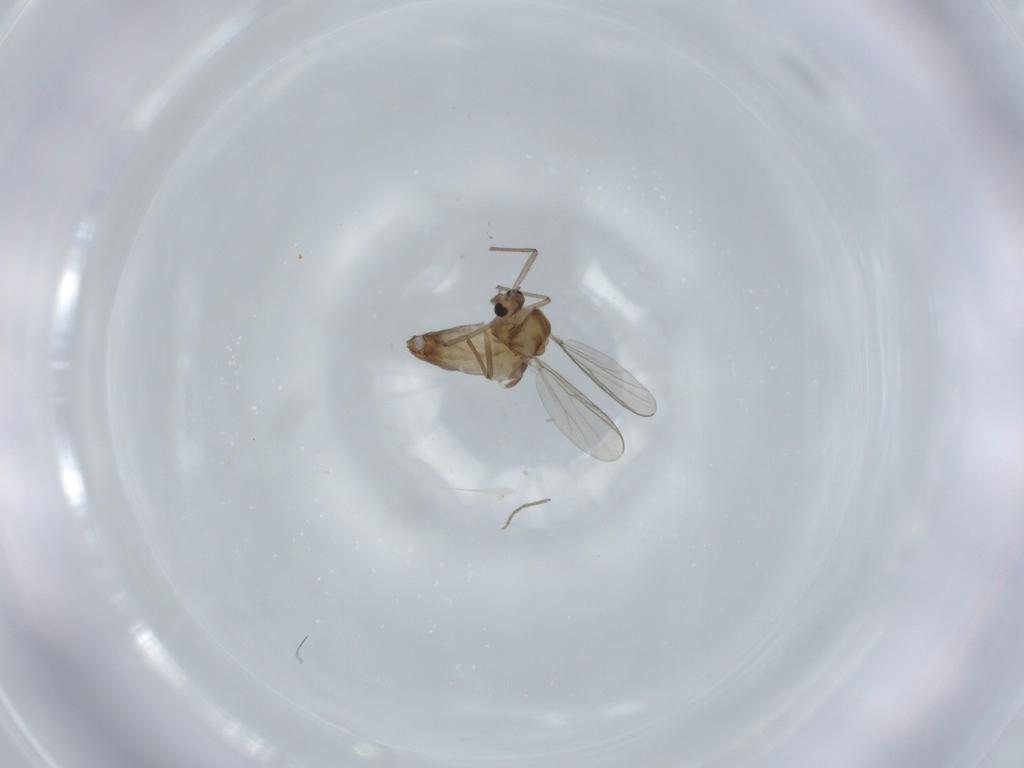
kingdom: Animalia
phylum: Arthropoda
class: Insecta
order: Diptera
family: Chironomidae
